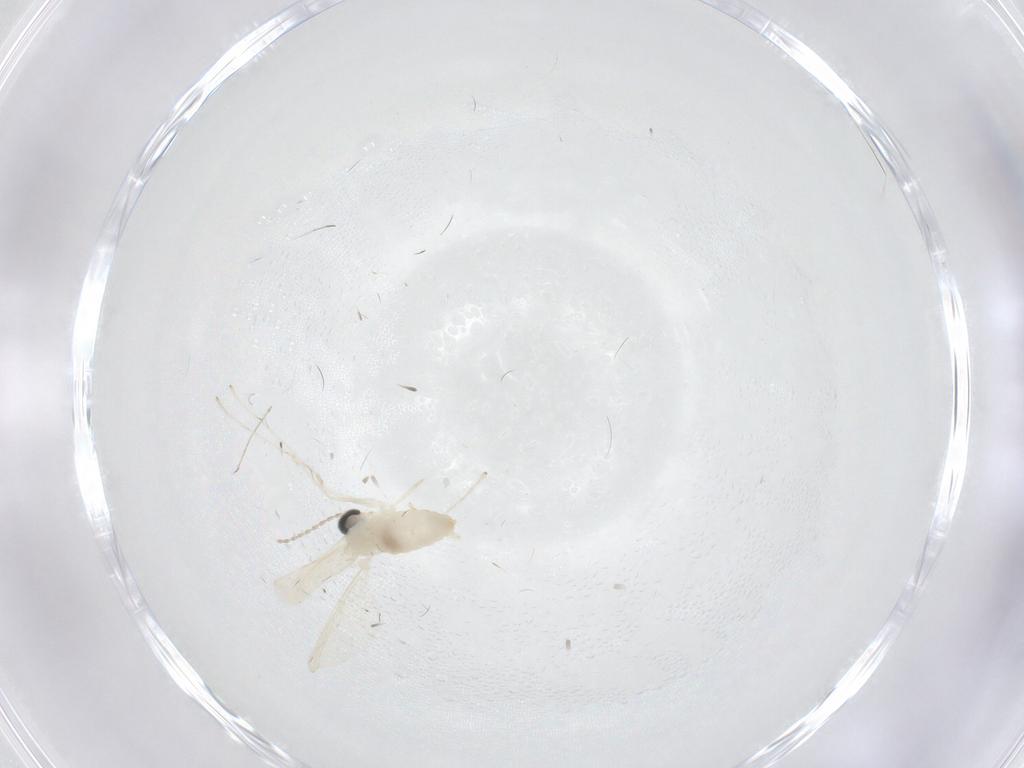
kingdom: Animalia
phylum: Arthropoda
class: Insecta
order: Diptera
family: Cecidomyiidae
